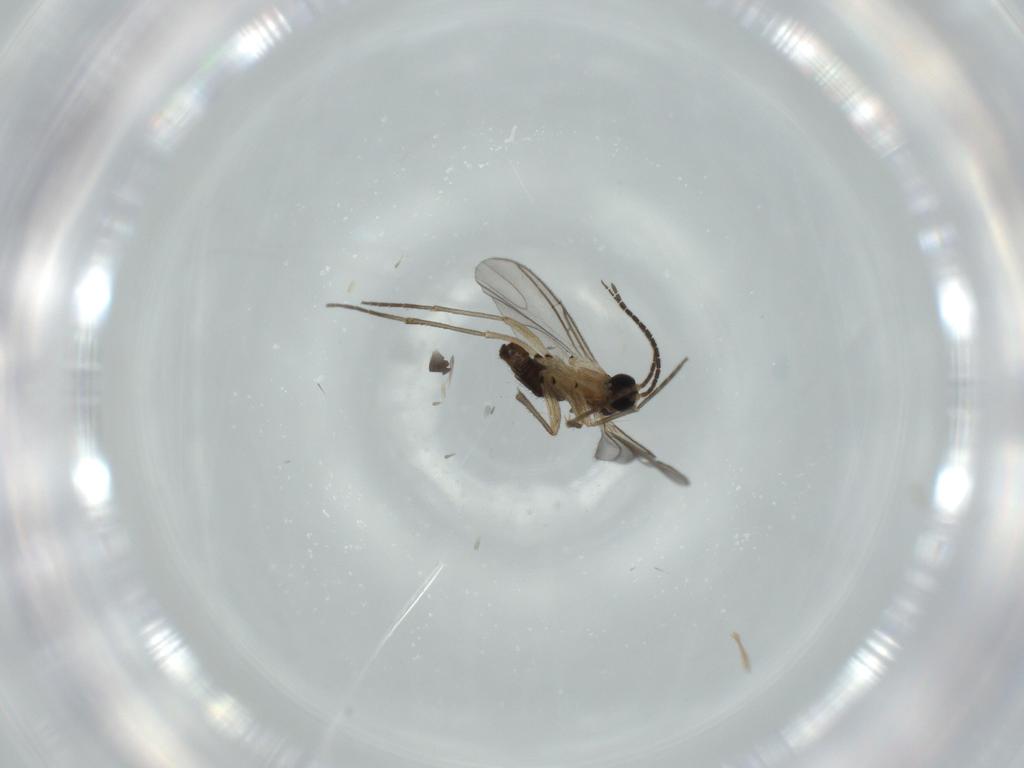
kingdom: Animalia
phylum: Arthropoda
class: Insecta
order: Diptera
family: Sciaridae
